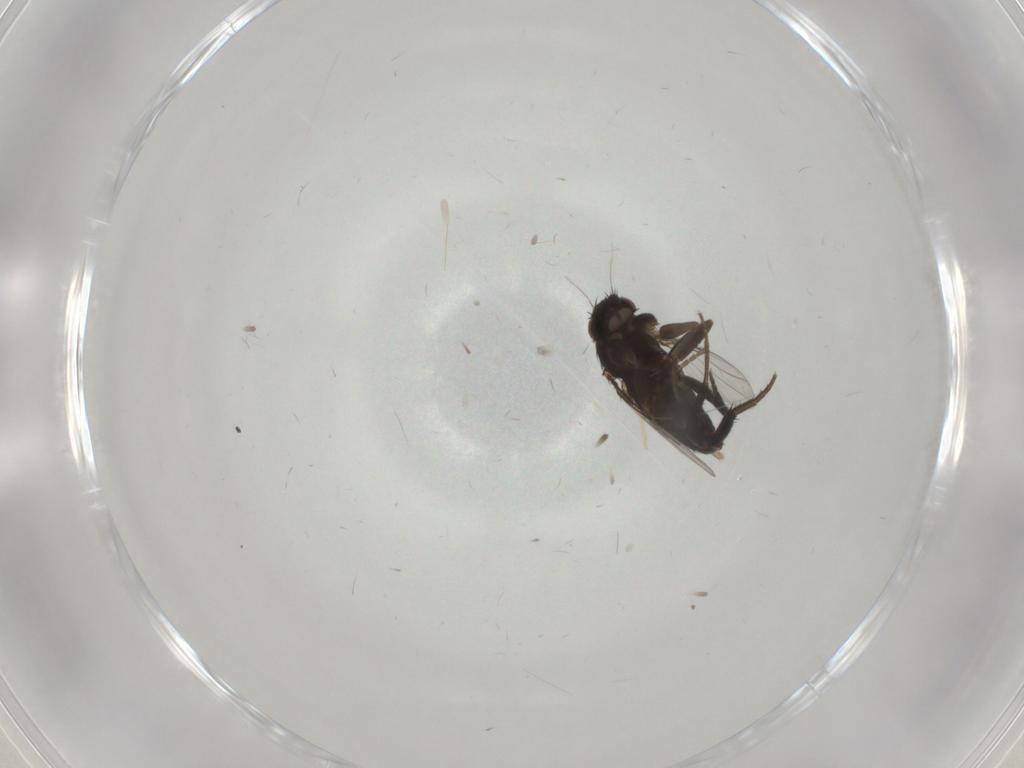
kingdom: Animalia
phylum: Arthropoda
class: Insecta
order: Diptera
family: Phoridae
